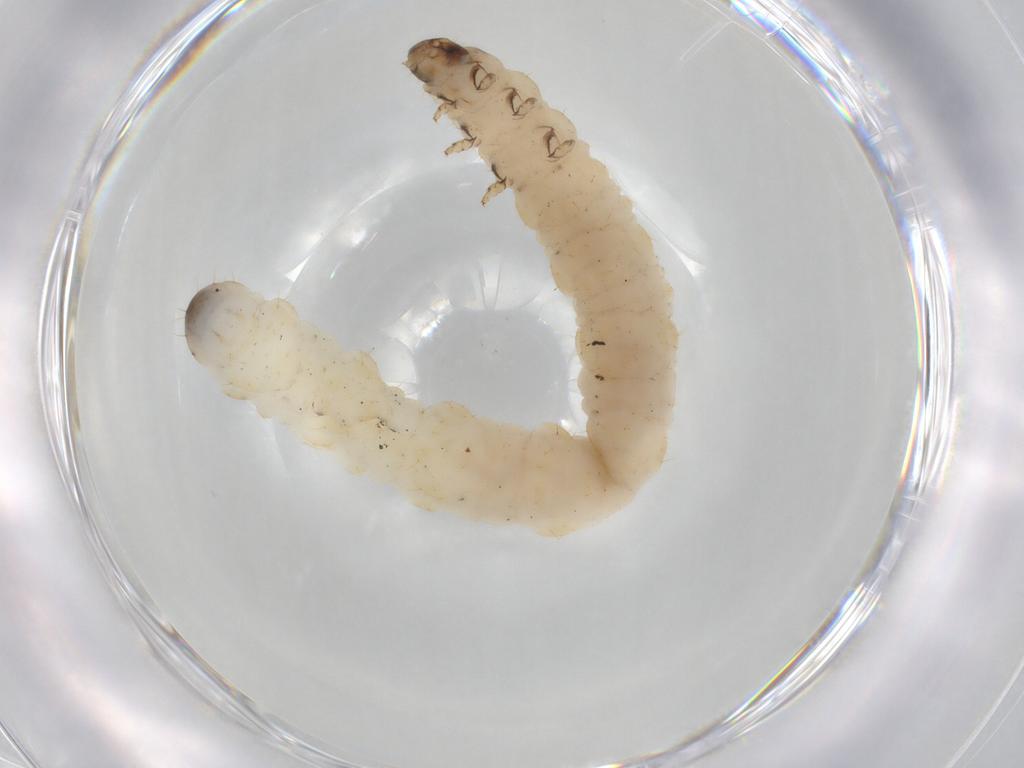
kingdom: Animalia
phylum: Arthropoda
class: Insecta
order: Coleoptera
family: Chrysomelidae
